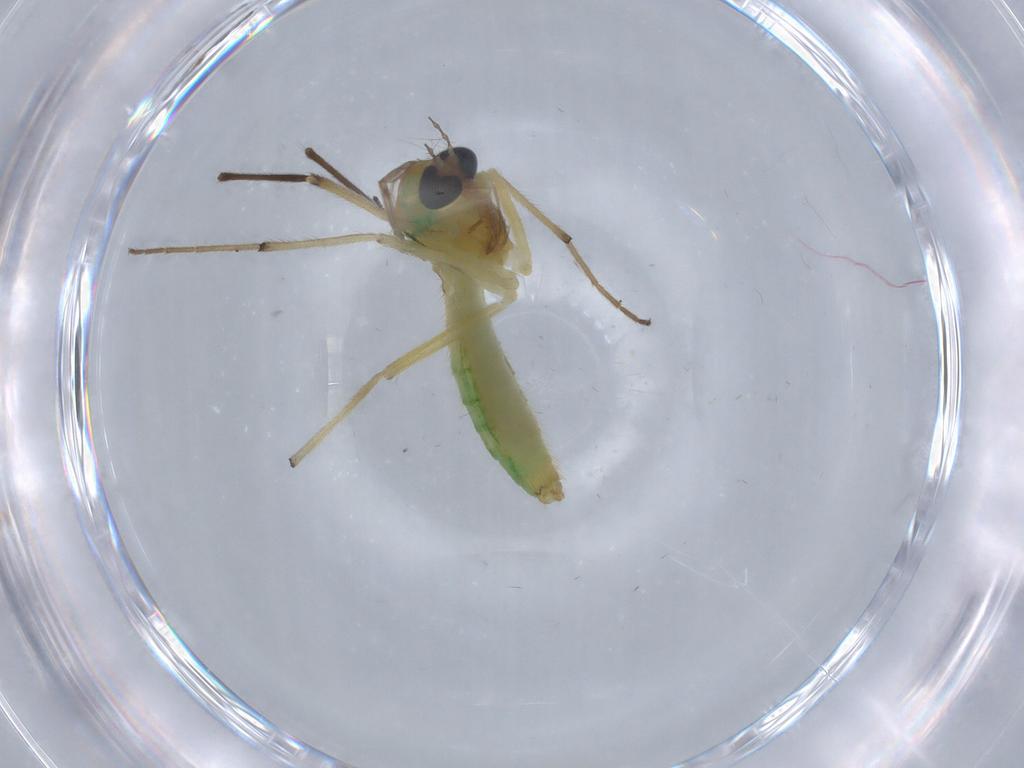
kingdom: Animalia
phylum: Arthropoda
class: Insecta
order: Diptera
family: Chironomidae
